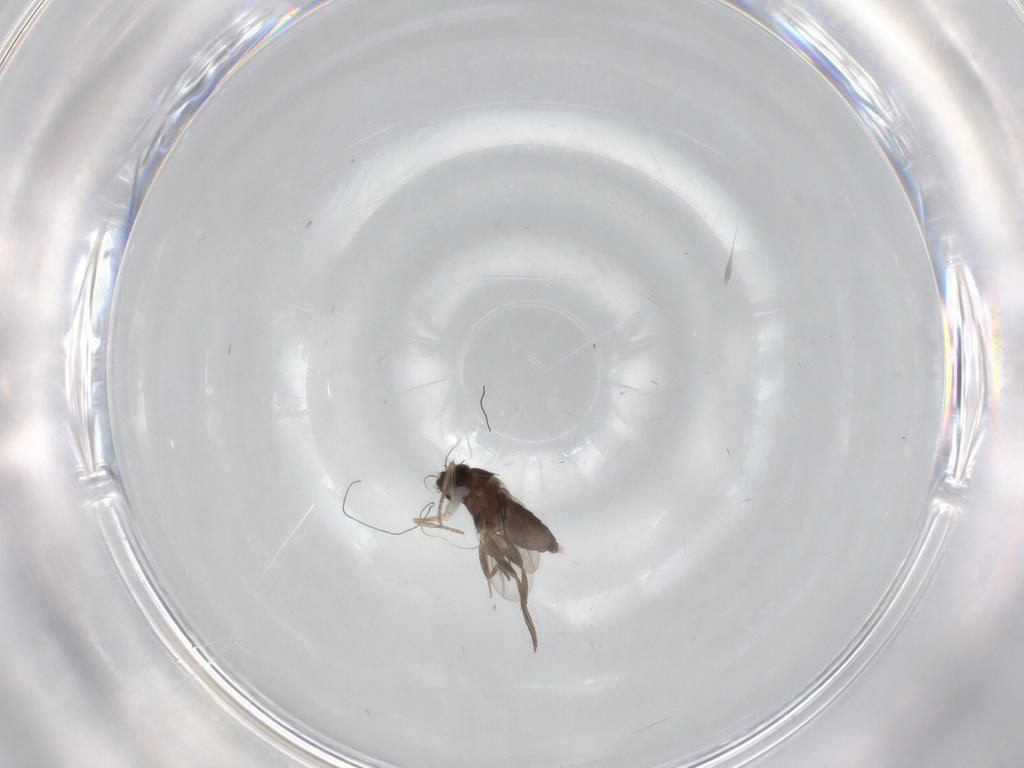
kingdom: Animalia
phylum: Arthropoda
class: Insecta
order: Diptera
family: Phoridae
